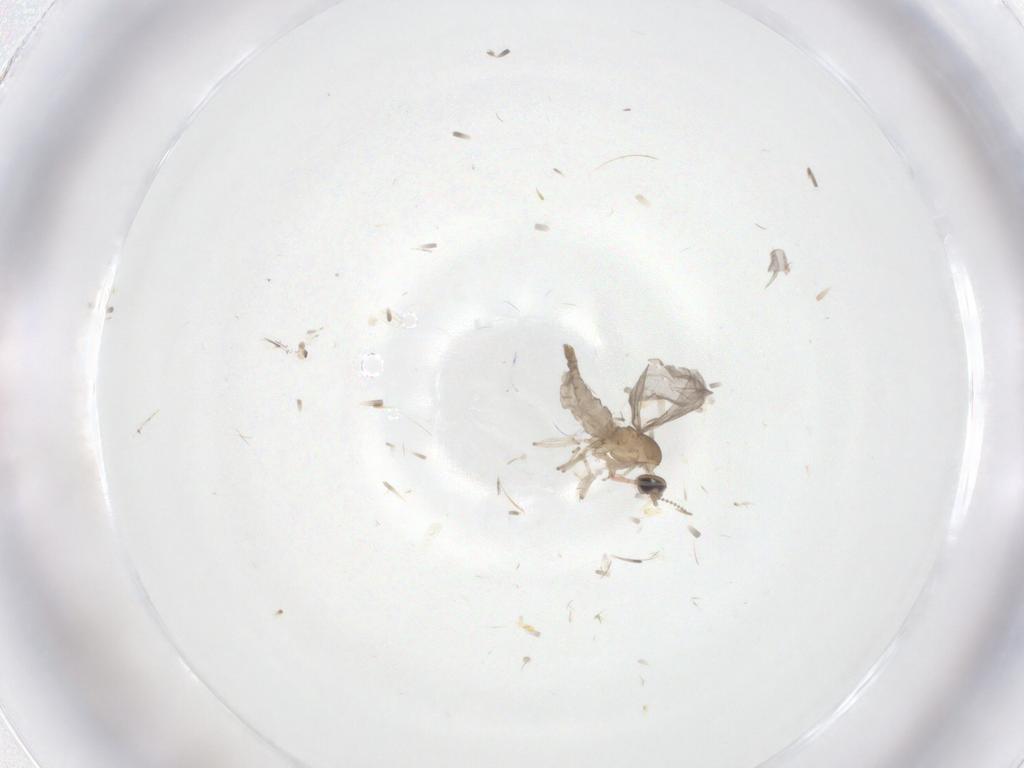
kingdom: Animalia
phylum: Arthropoda
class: Insecta
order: Diptera
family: Cecidomyiidae
